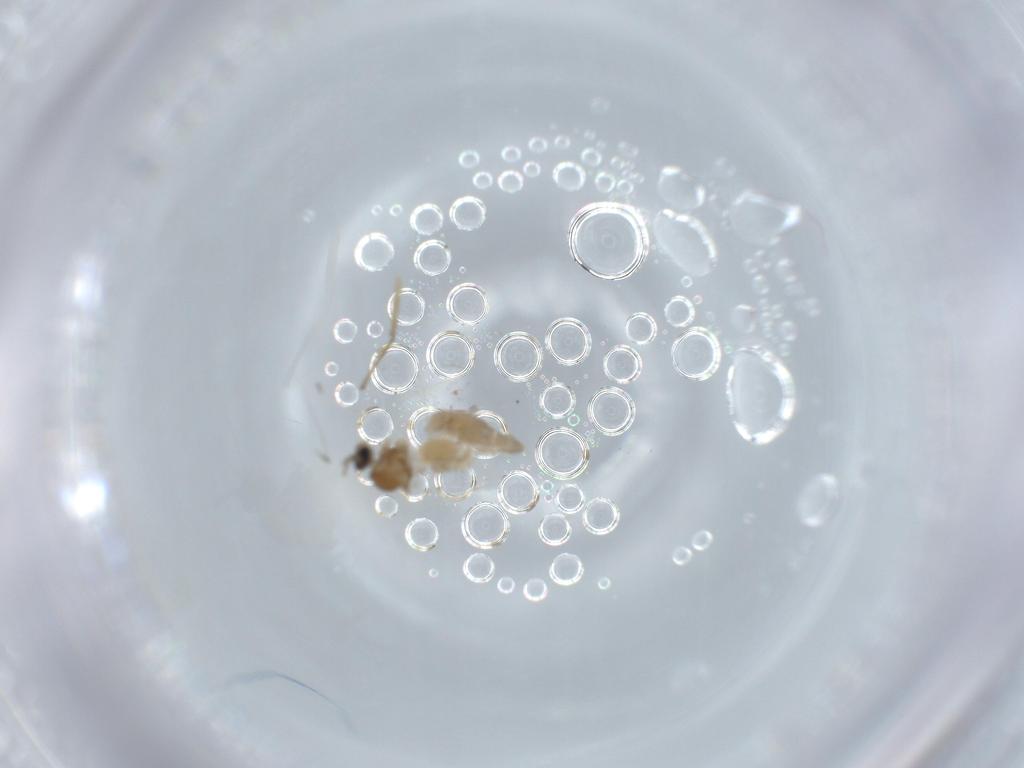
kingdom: Animalia
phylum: Arthropoda
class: Insecta
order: Diptera
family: Cecidomyiidae
